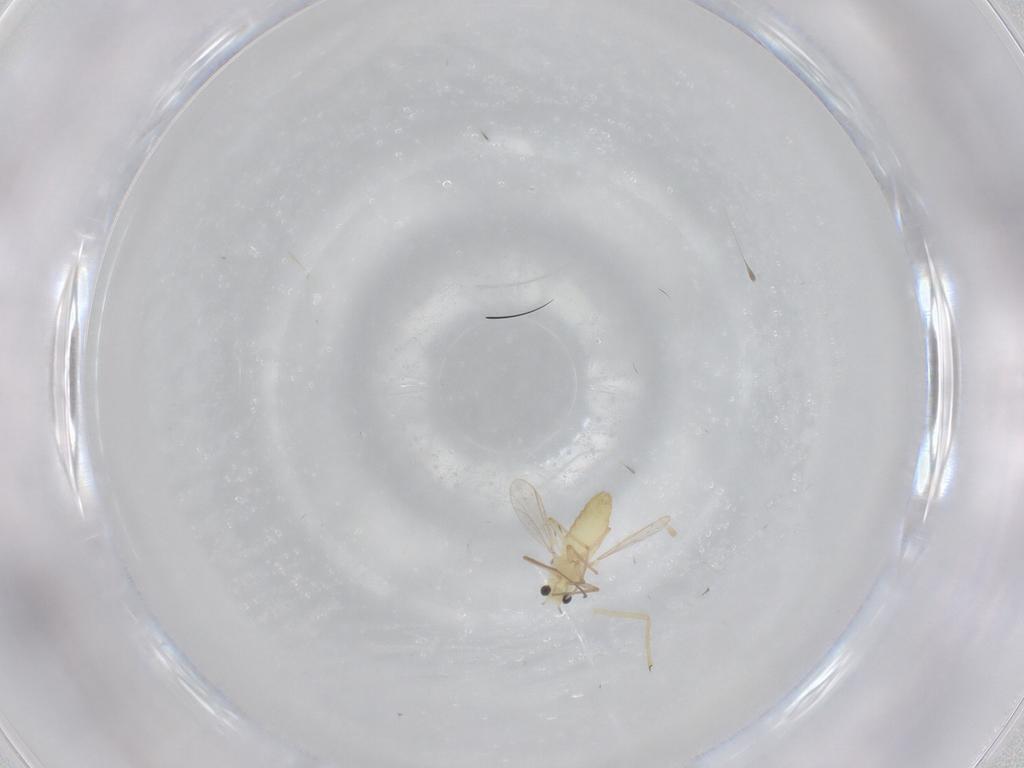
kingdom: Animalia
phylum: Arthropoda
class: Insecta
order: Diptera
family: Chironomidae
